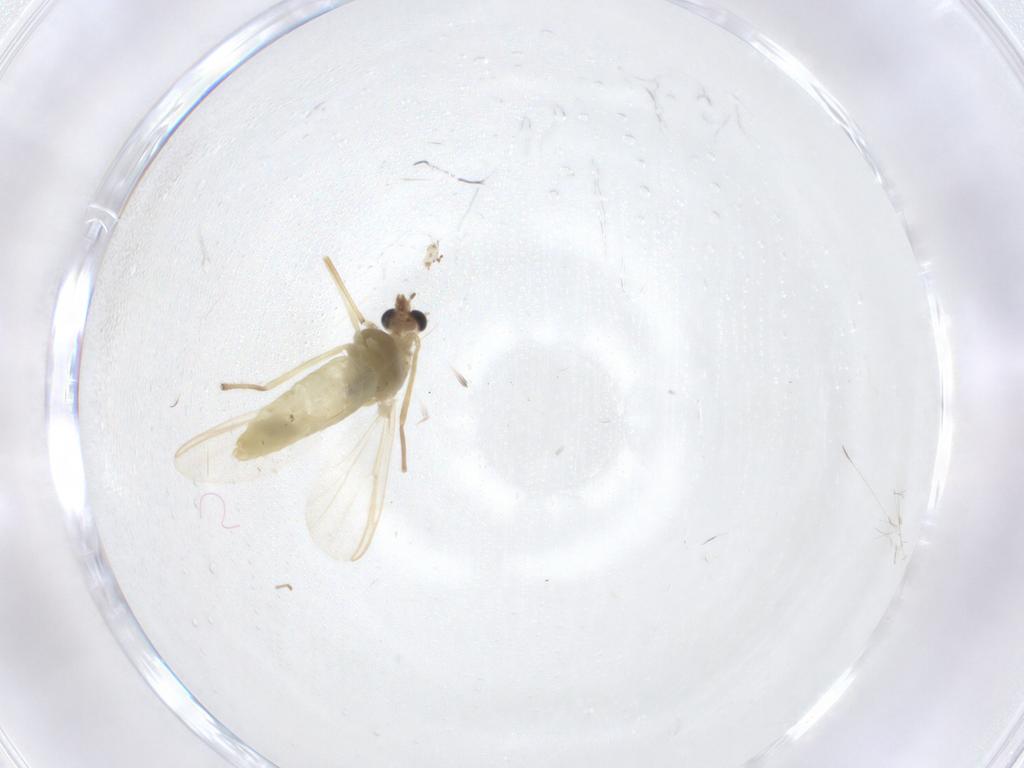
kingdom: Animalia
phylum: Arthropoda
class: Insecta
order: Diptera
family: Chironomidae
